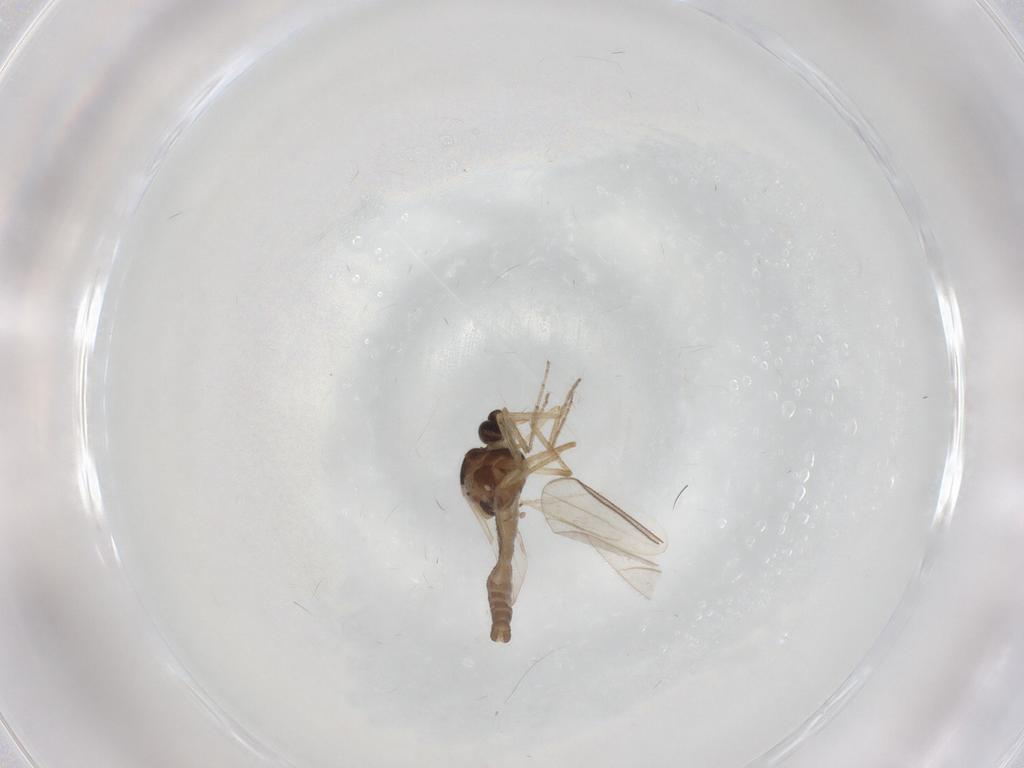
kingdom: Animalia
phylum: Arthropoda
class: Insecta
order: Diptera
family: Ceratopogonidae
